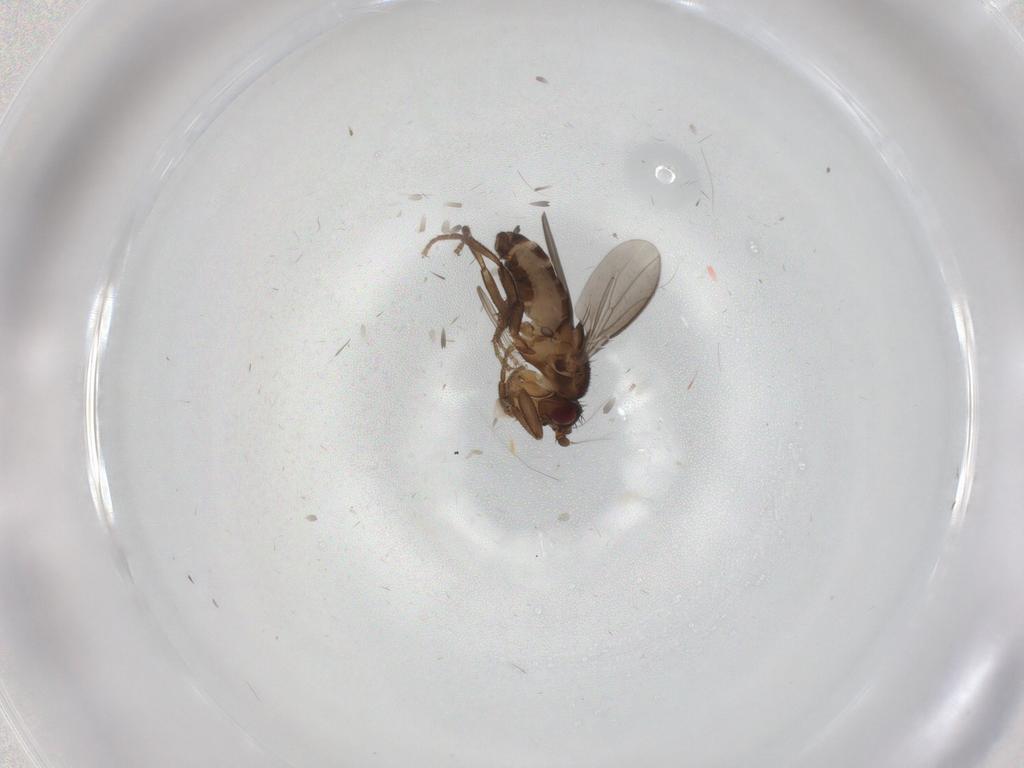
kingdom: Animalia
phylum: Arthropoda
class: Insecta
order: Diptera
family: Sphaeroceridae
